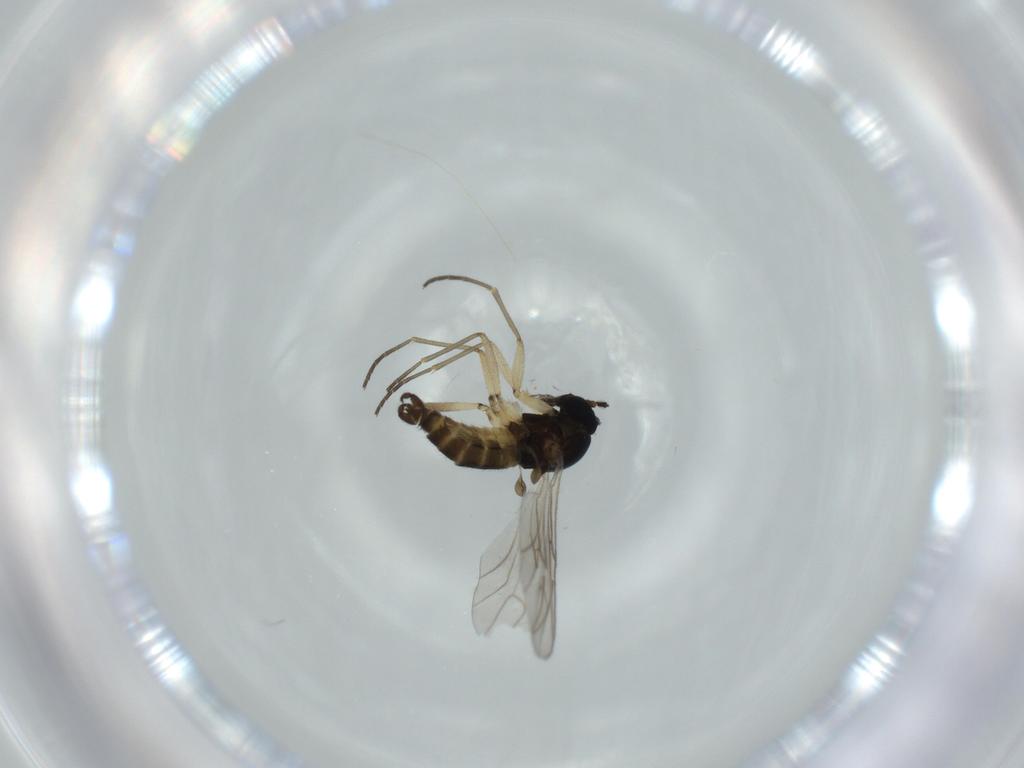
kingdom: Animalia
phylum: Arthropoda
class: Insecta
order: Diptera
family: Sciaridae
